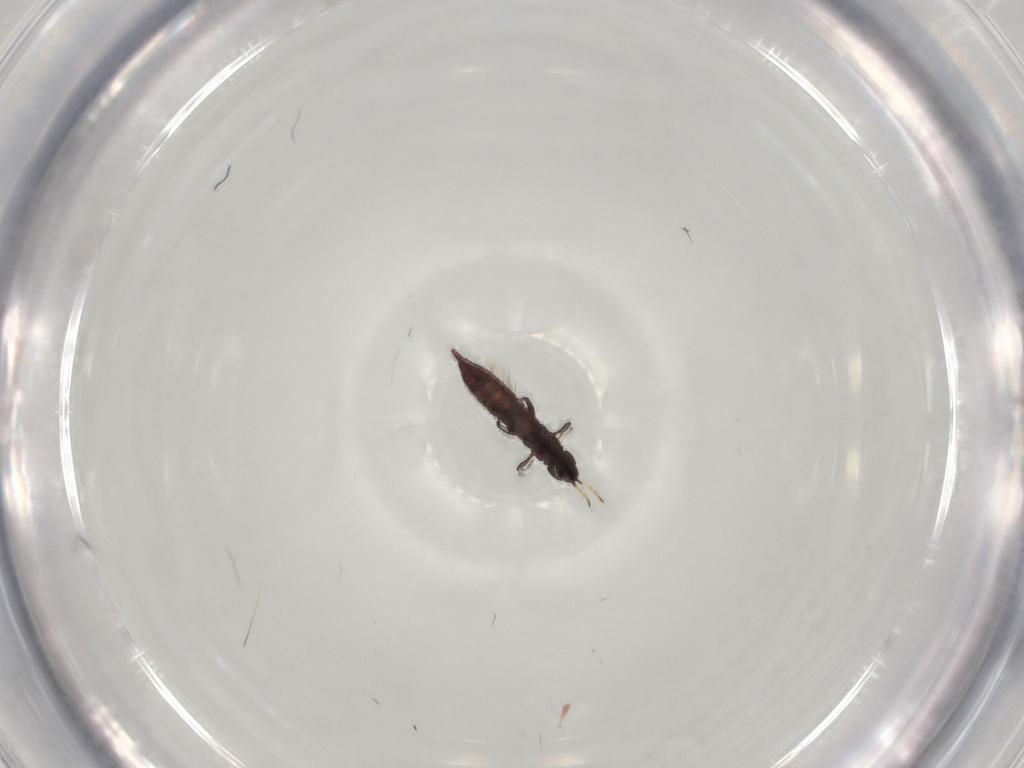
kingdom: Animalia
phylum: Arthropoda
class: Insecta
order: Thysanoptera
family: Phlaeothripidae
